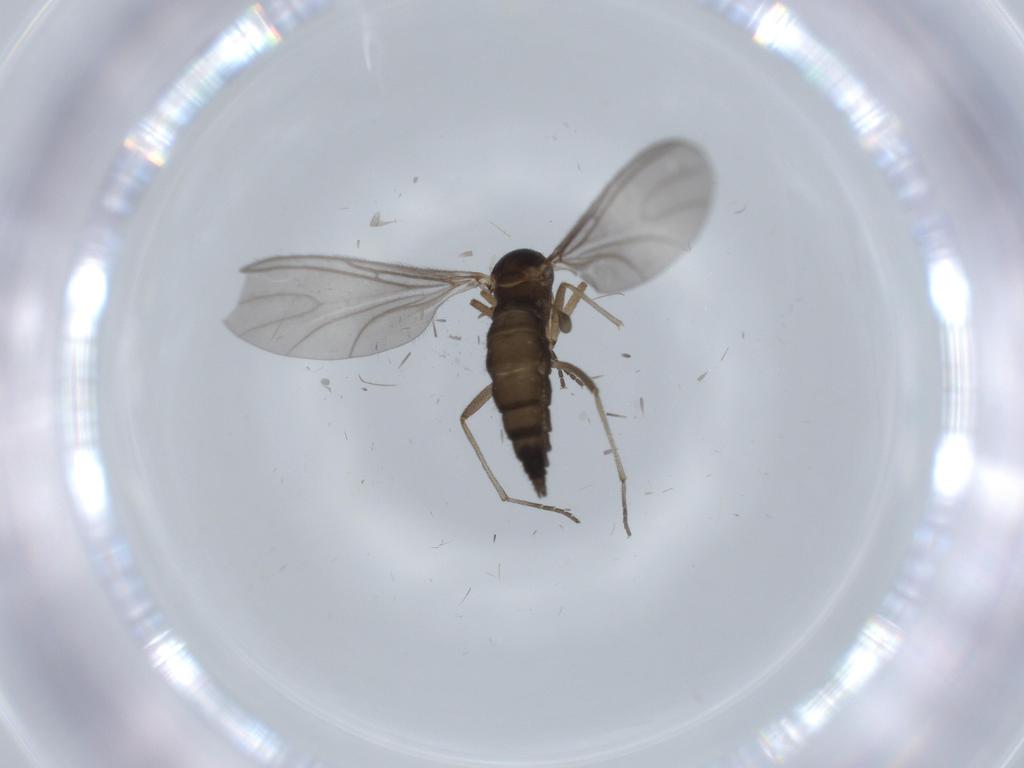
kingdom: Animalia
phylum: Arthropoda
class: Insecta
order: Diptera
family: Sciaridae
